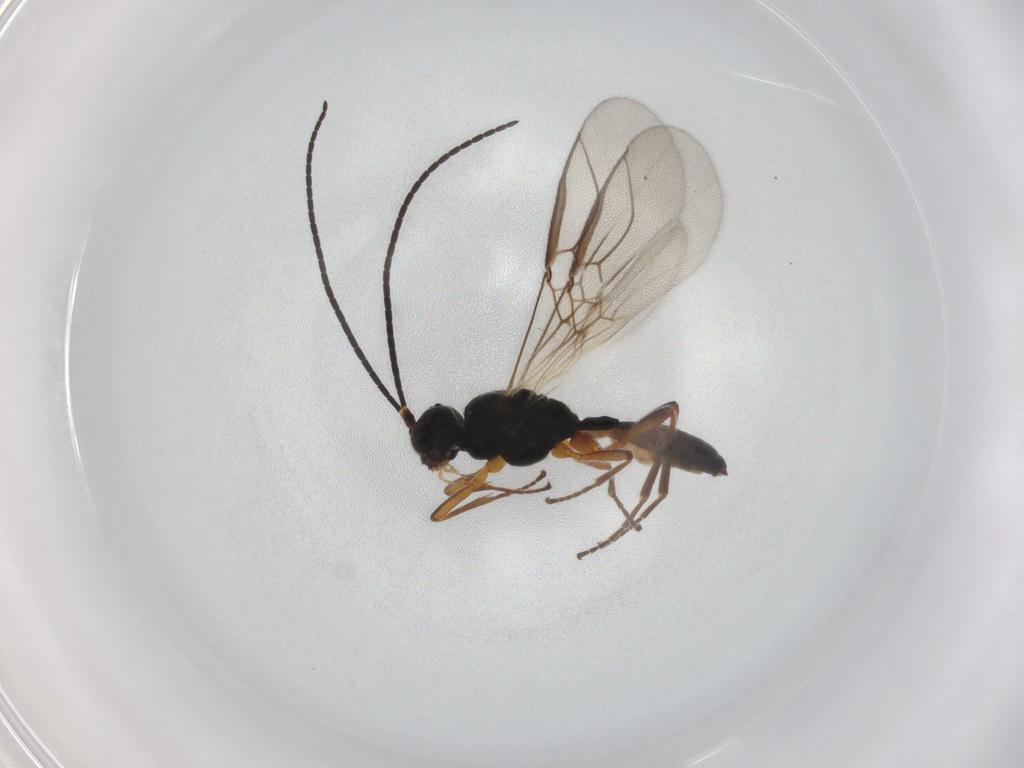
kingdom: Animalia
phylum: Arthropoda
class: Insecta
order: Hymenoptera
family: Braconidae
